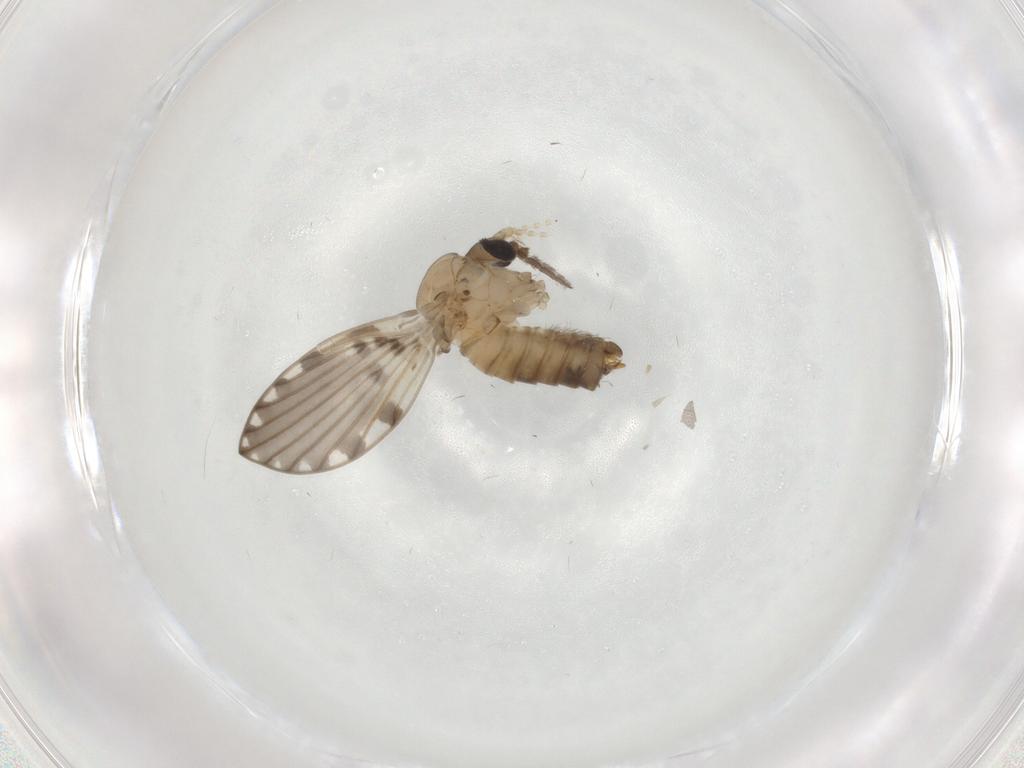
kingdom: Animalia
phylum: Arthropoda
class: Insecta
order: Diptera
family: Psychodidae
